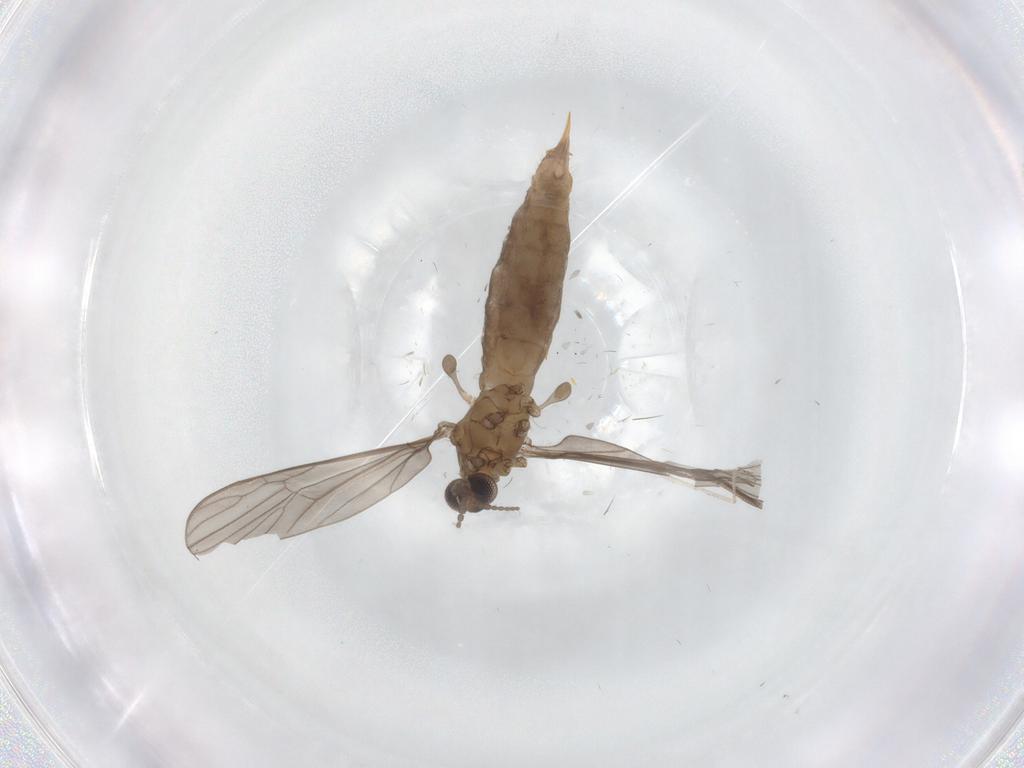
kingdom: Animalia
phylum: Arthropoda
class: Insecta
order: Diptera
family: Limoniidae
